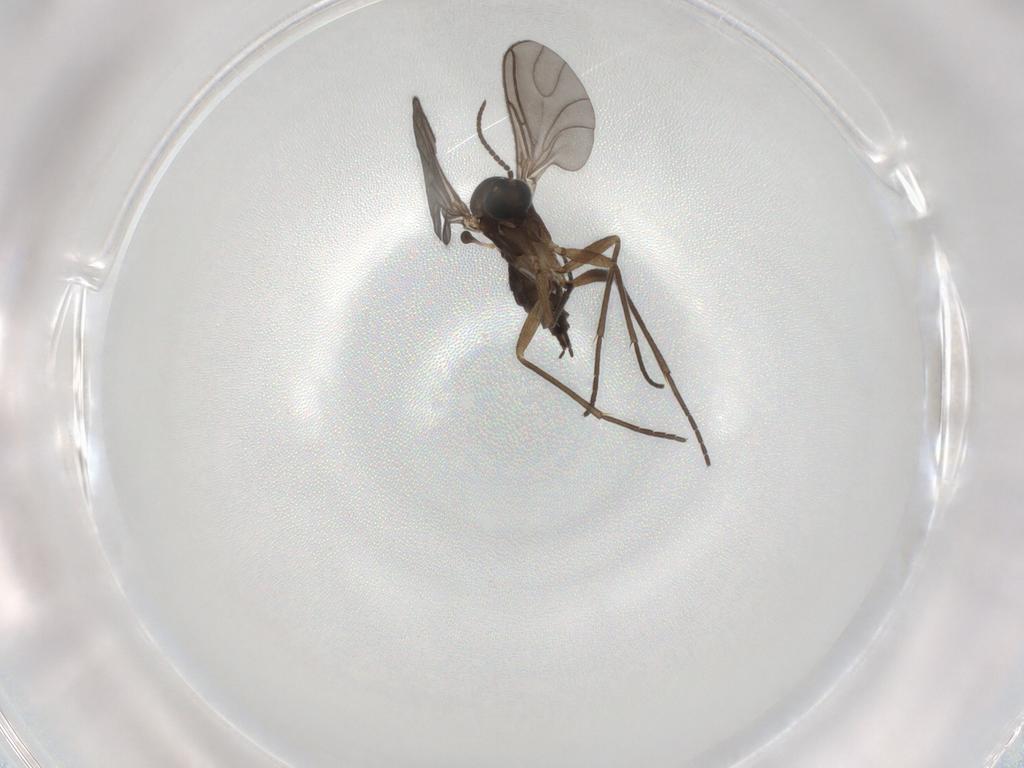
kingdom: Animalia
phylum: Arthropoda
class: Insecta
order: Diptera
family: Sciaridae
